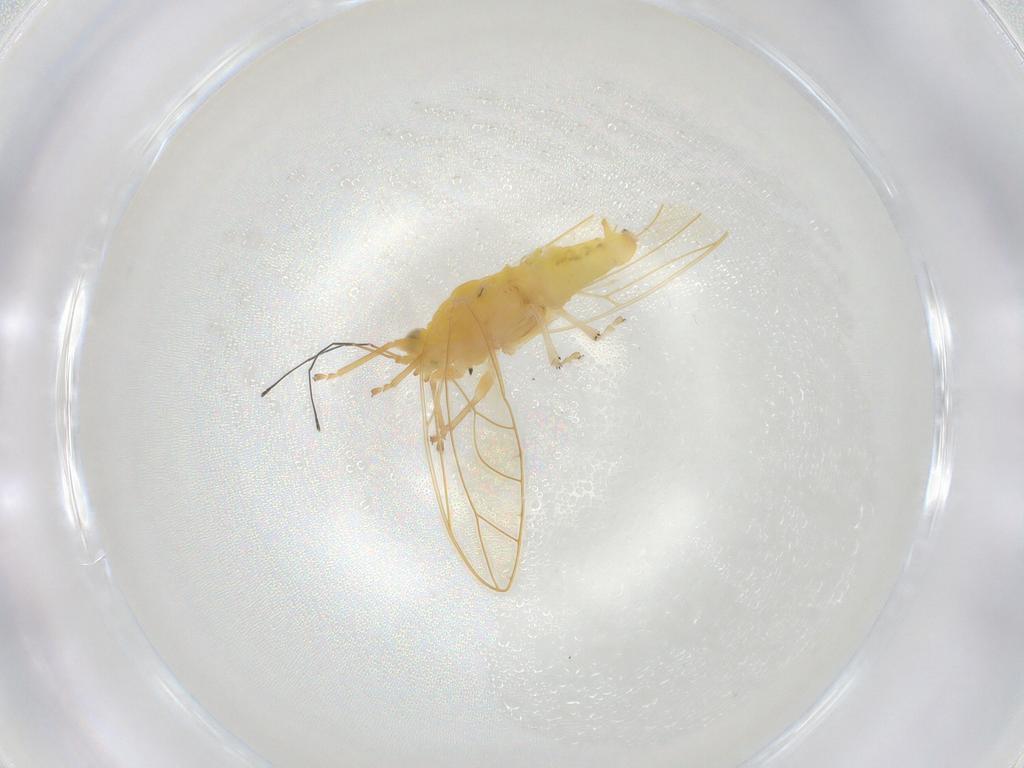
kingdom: Animalia
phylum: Arthropoda
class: Insecta
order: Hemiptera
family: Triozidae
